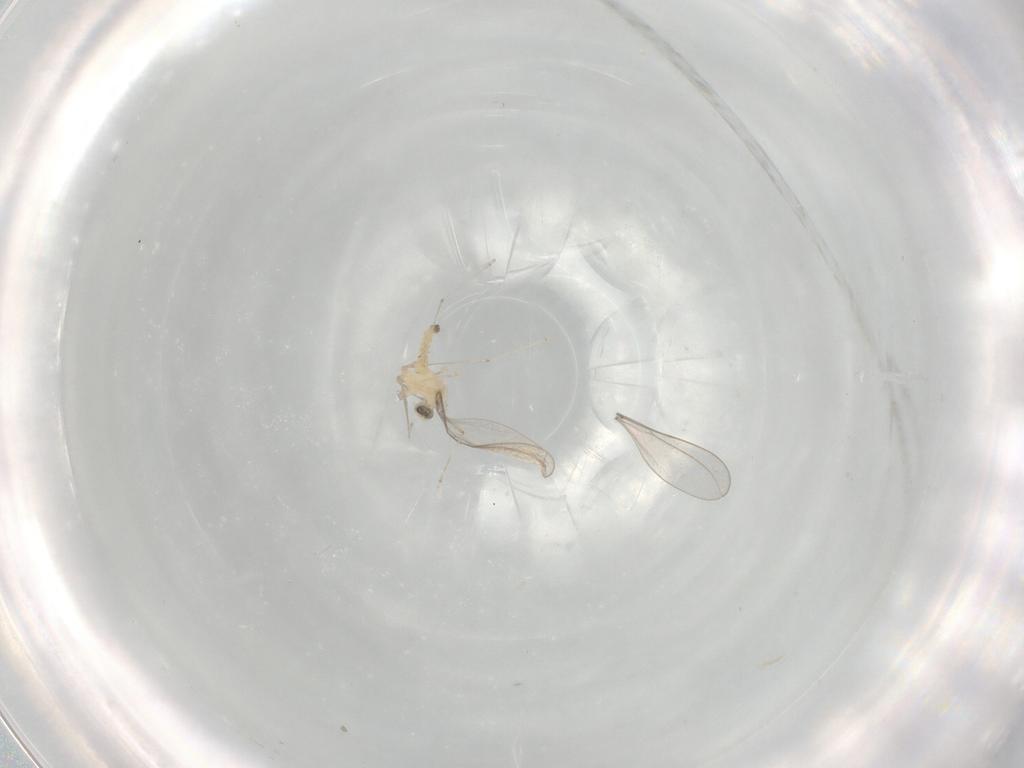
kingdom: Animalia
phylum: Arthropoda
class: Insecta
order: Diptera
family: Cecidomyiidae
